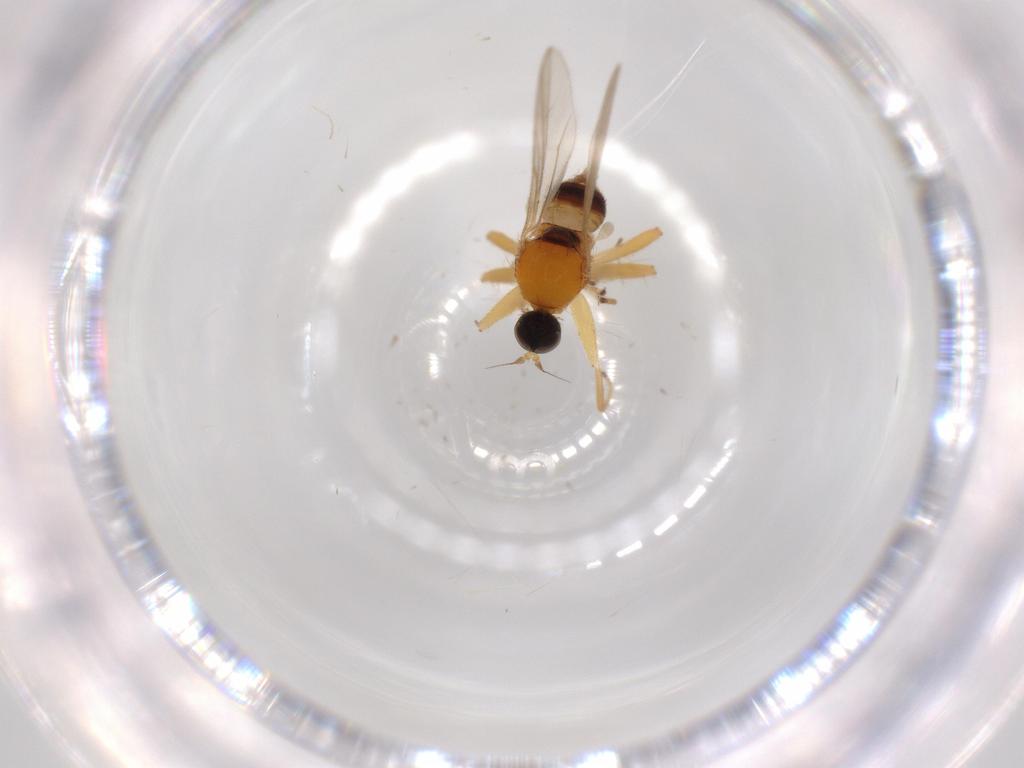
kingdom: Animalia
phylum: Arthropoda
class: Insecta
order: Diptera
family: Hybotidae
